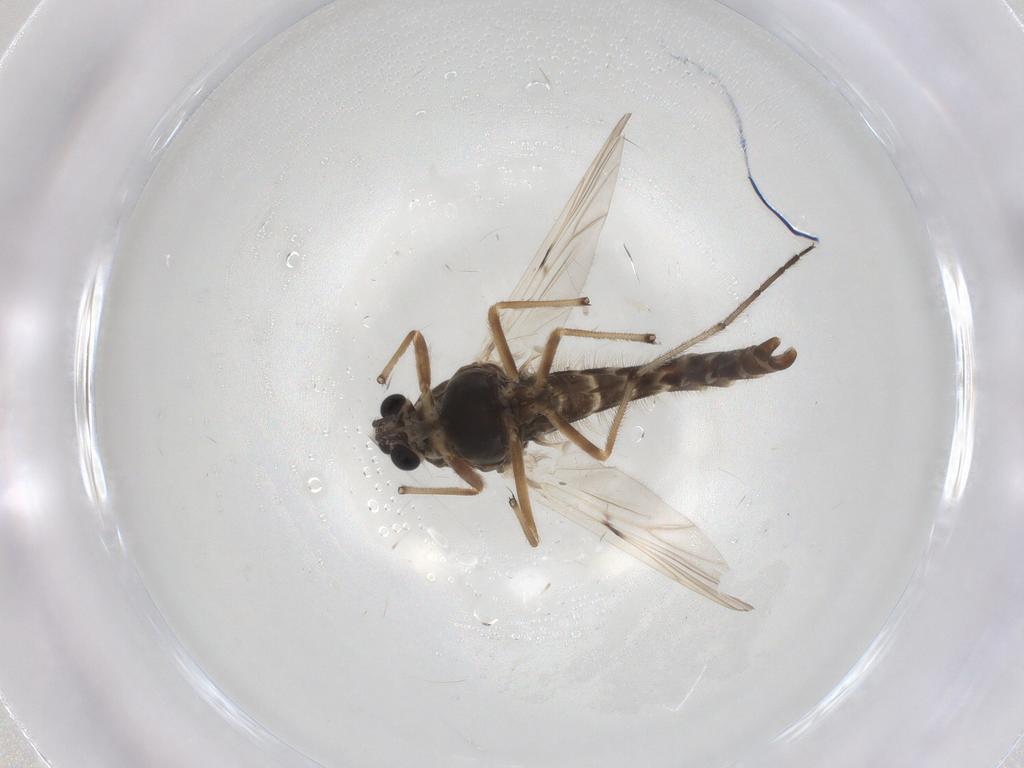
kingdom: Animalia
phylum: Arthropoda
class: Insecta
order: Diptera
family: Chironomidae
